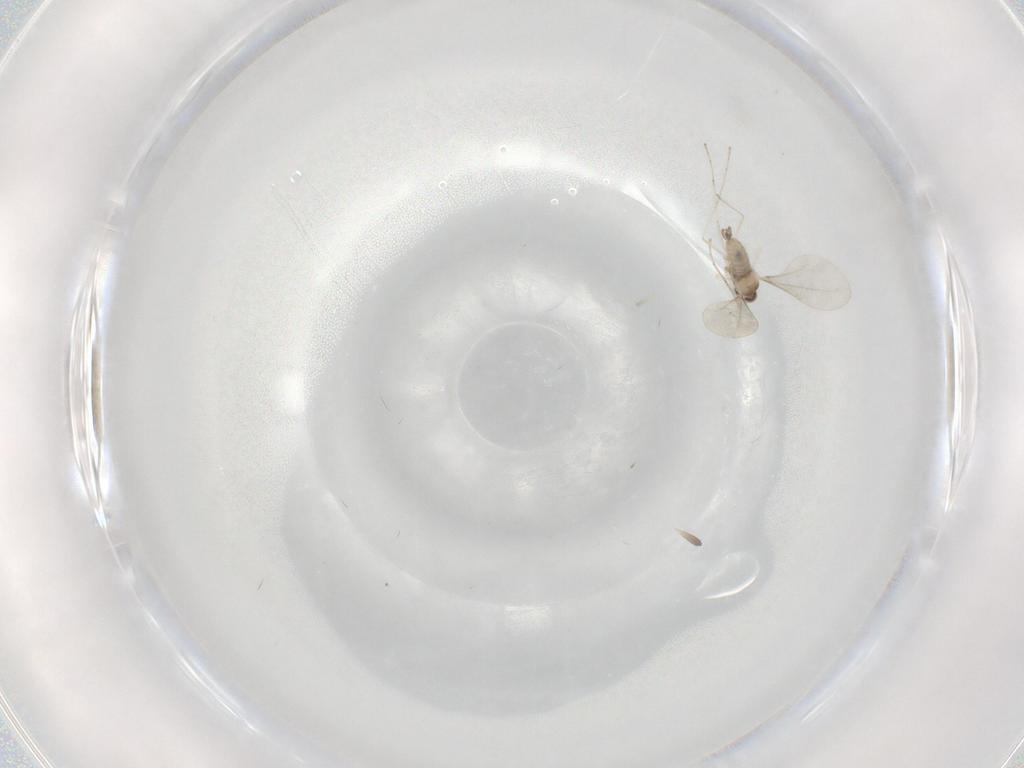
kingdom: Animalia
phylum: Arthropoda
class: Insecta
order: Diptera
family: Cecidomyiidae
